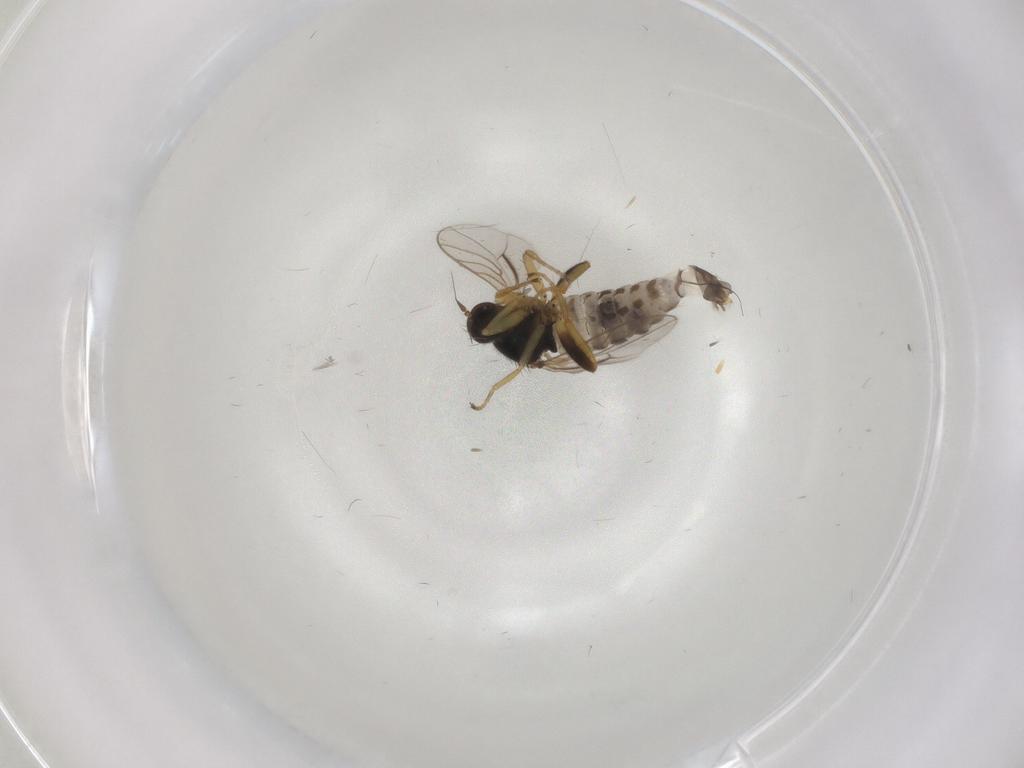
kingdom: Animalia
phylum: Arthropoda
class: Insecta
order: Diptera
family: Hybotidae
